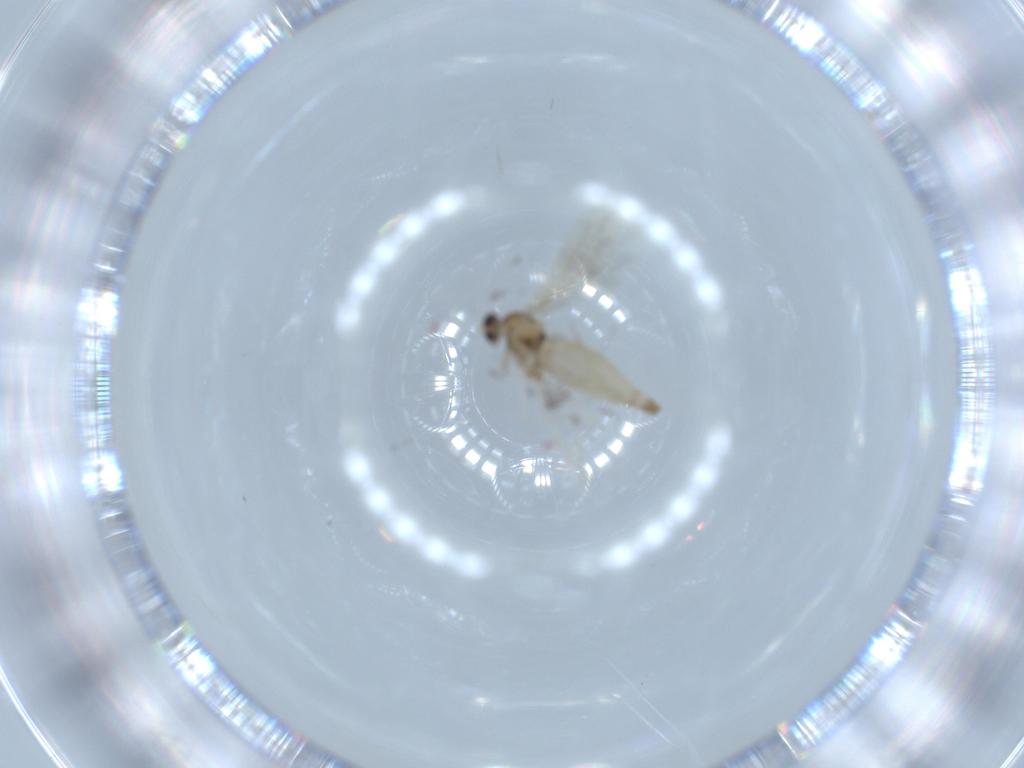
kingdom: Animalia
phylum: Arthropoda
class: Insecta
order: Diptera
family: Cecidomyiidae
